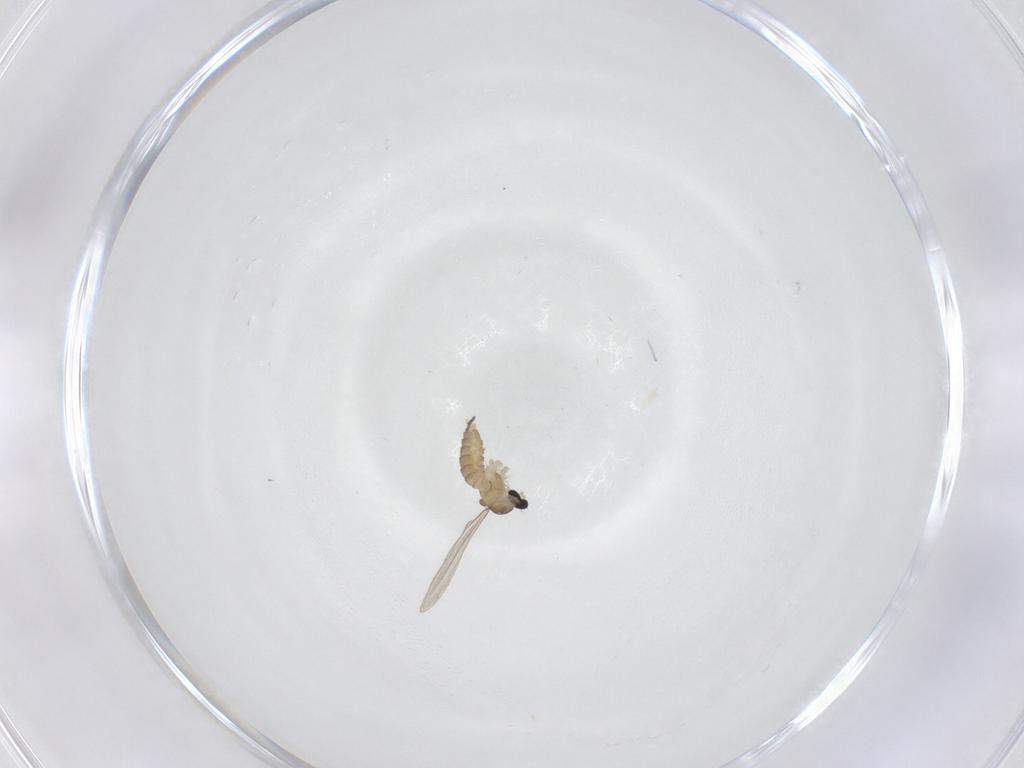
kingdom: Animalia
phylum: Arthropoda
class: Insecta
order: Diptera
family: Cecidomyiidae
